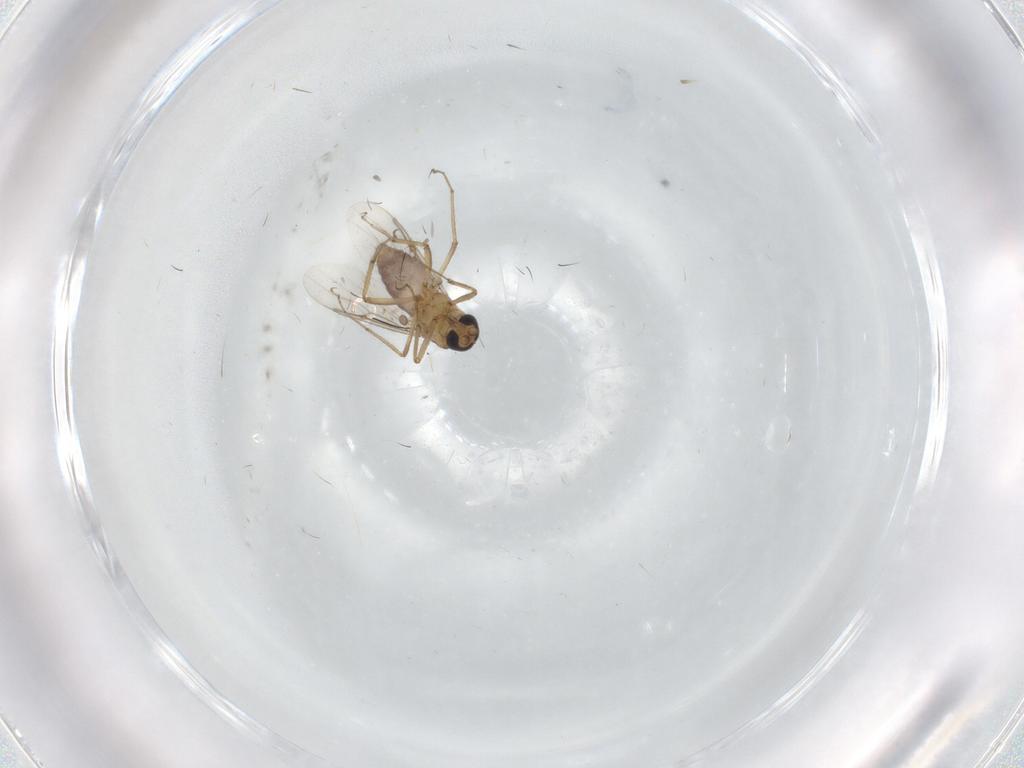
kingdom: Animalia
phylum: Arthropoda
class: Insecta
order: Diptera
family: Cecidomyiidae
